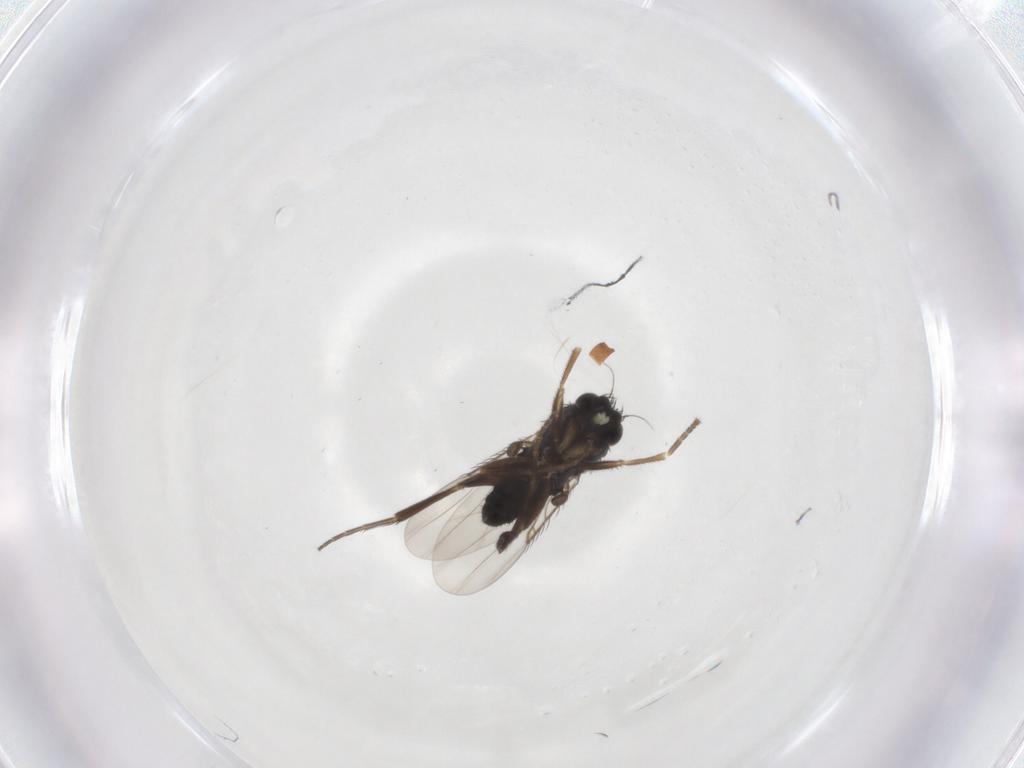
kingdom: Animalia
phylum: Arthropoda
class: Insecta
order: Diptera
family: Phoridae
